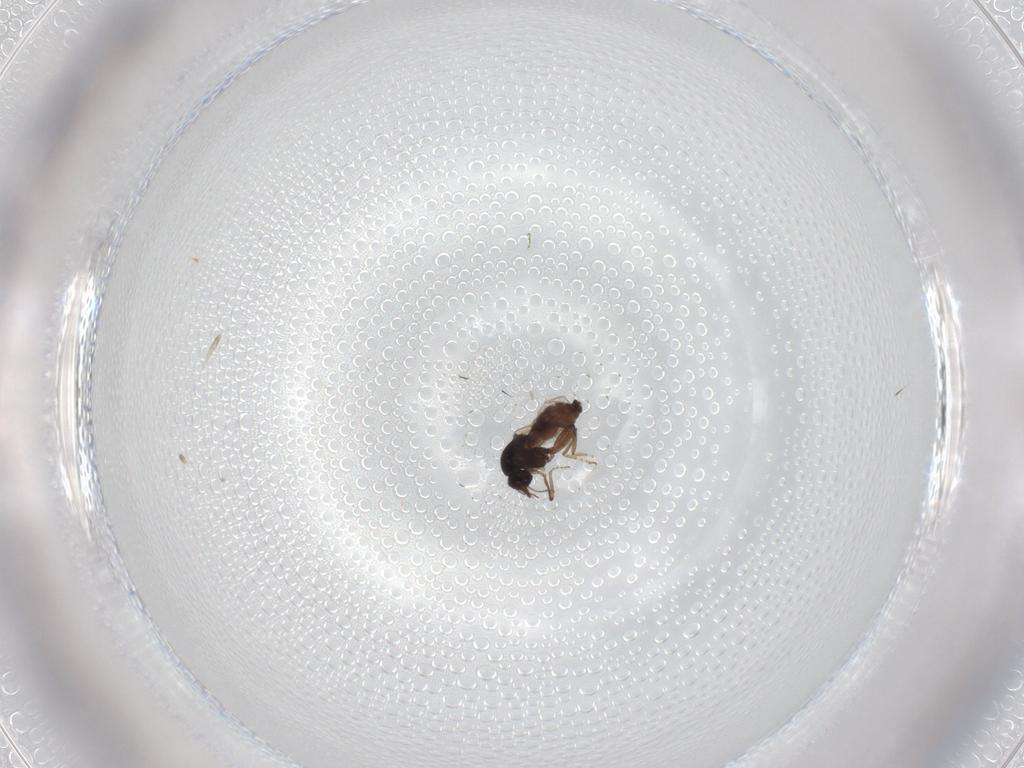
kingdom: Animalia
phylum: Arthropoda
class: Insecta
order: Diptera
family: Ceratopogonidae
